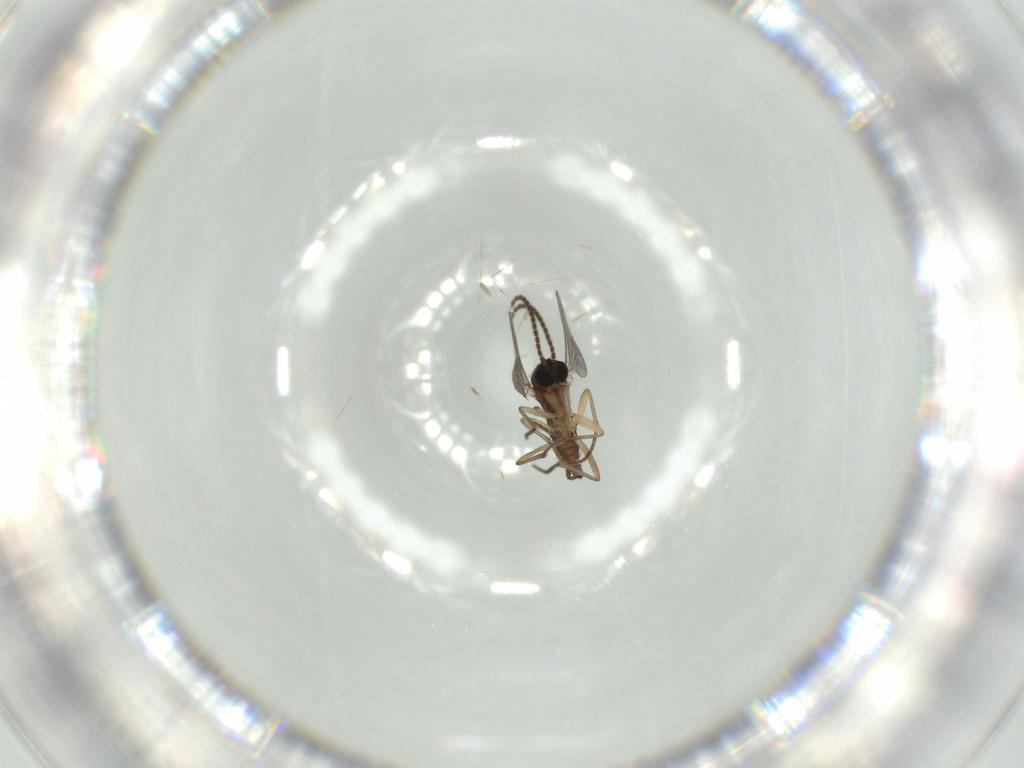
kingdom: Animalia
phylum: Arthropoda
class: Insecta
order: Diptera
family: Sciaridae
